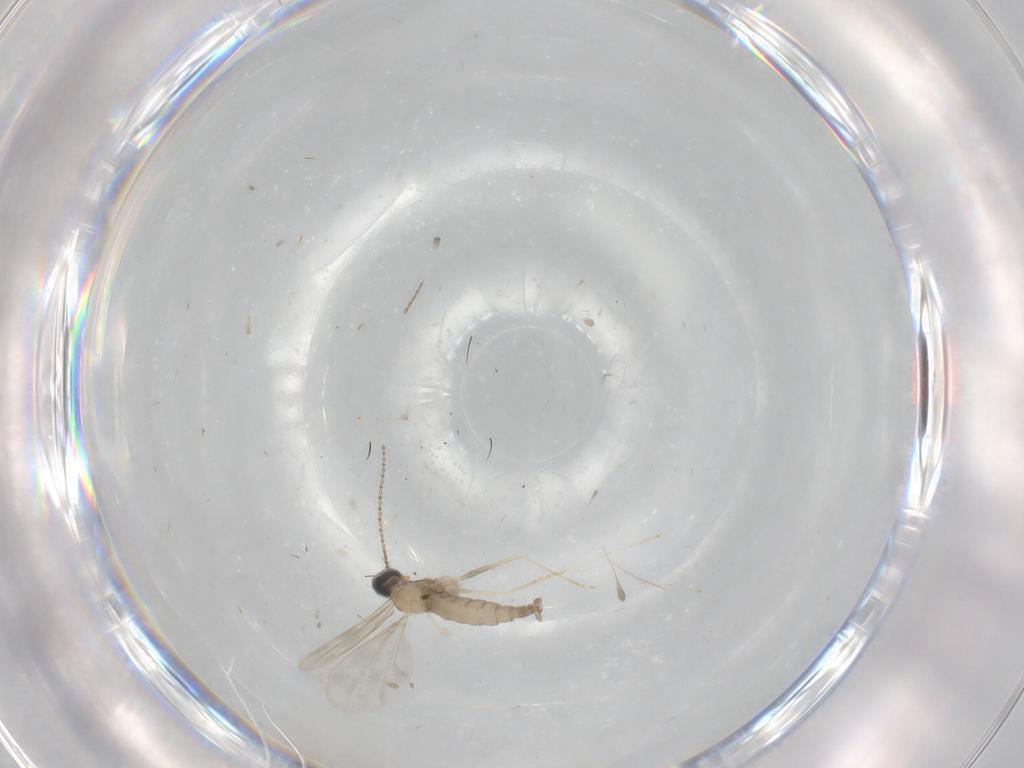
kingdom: Animalia
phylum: Arthropoda
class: Insecta
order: Diptera
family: Cecidomyiidae
